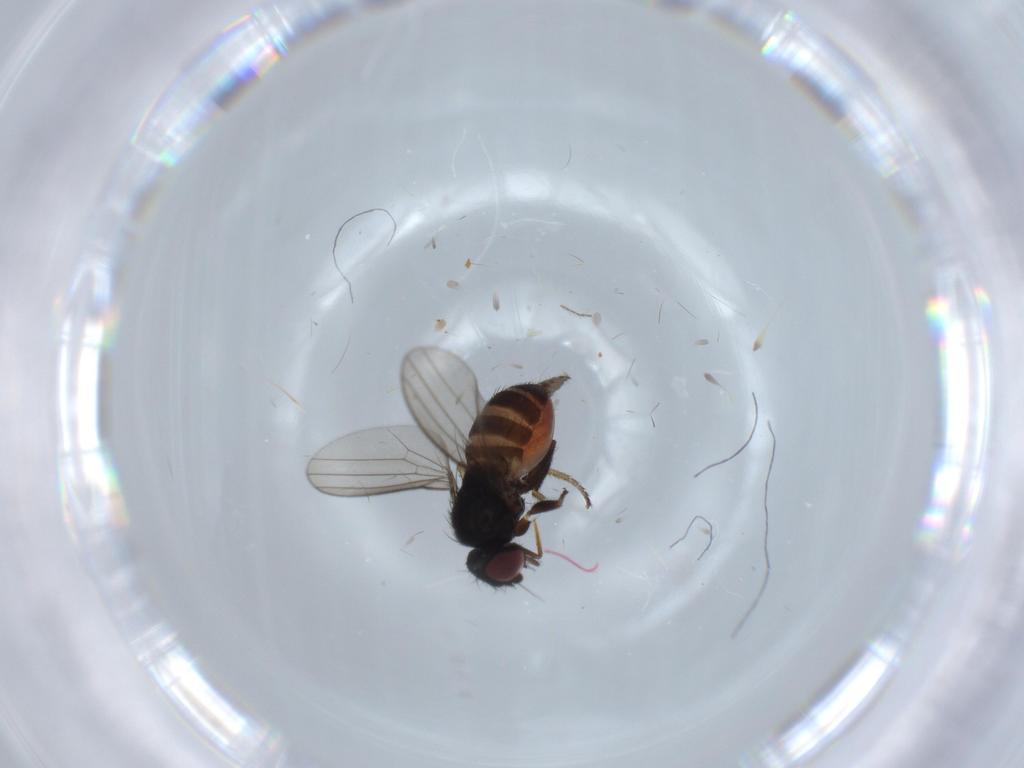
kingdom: Animalia
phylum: Arthropoda
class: Insecta
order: Diptera
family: Milichiidae
